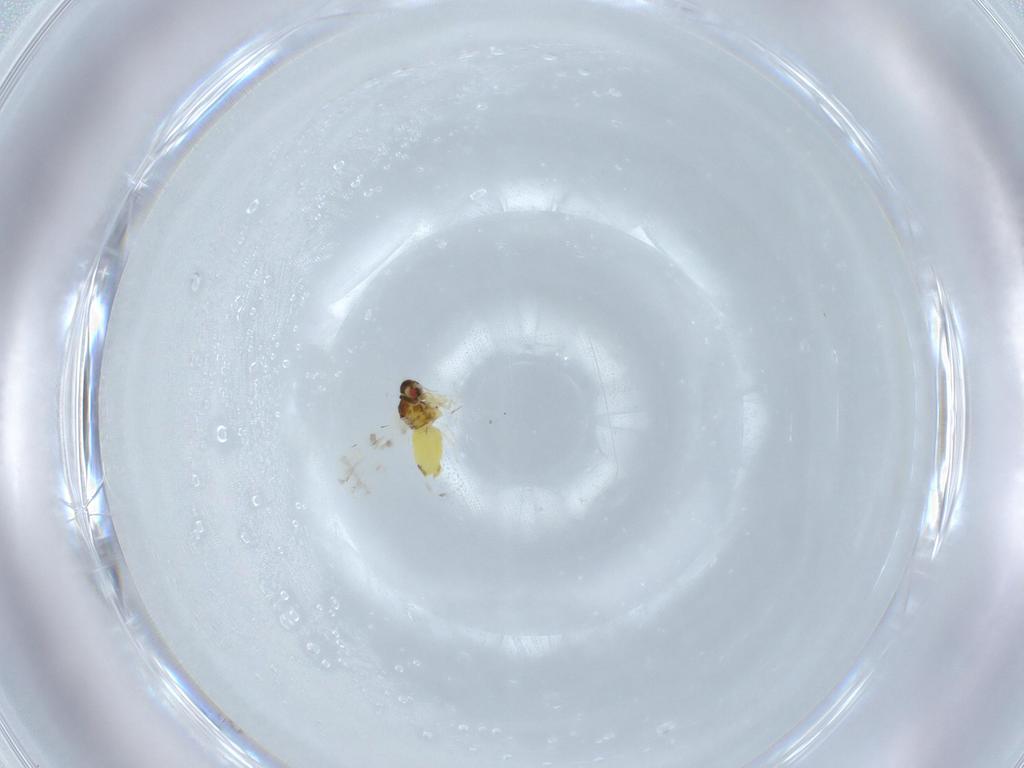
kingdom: Animalia
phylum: Arthropoda
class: Insecta
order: Hemiptera
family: Aleyrodidae
